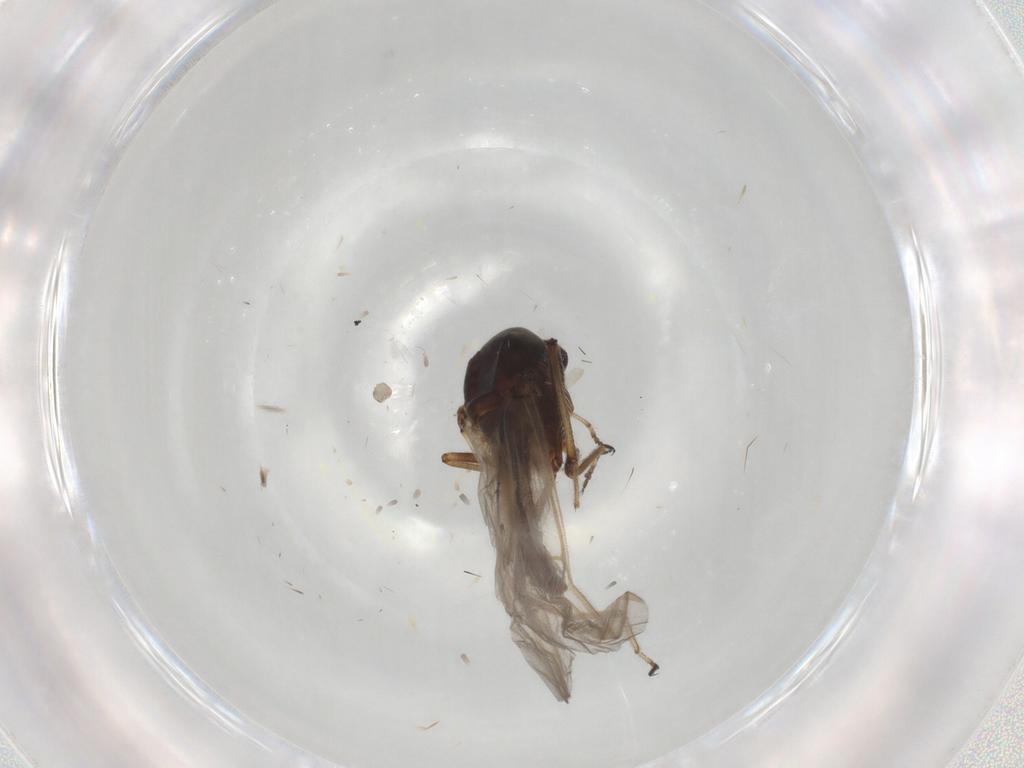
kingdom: Animalia
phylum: Arthropoda
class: Insecta
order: Diptera
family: Ceratopogonidae
